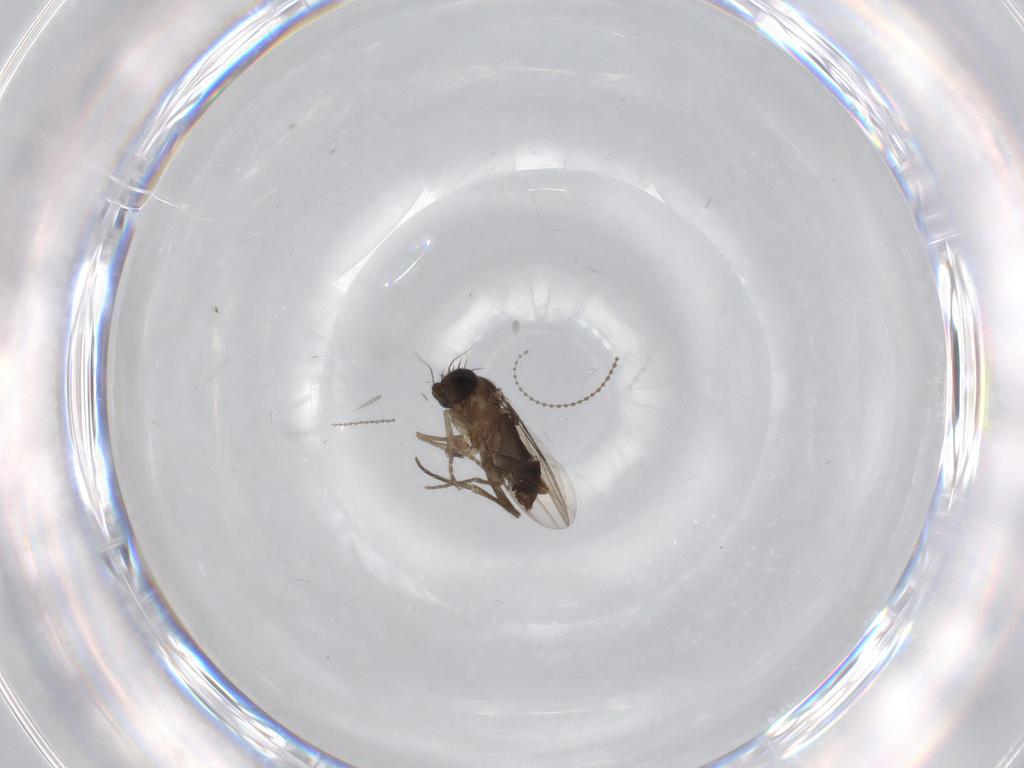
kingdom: Animalia
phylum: Arthropoda
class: Insecta
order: Diptera
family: Phoridae
